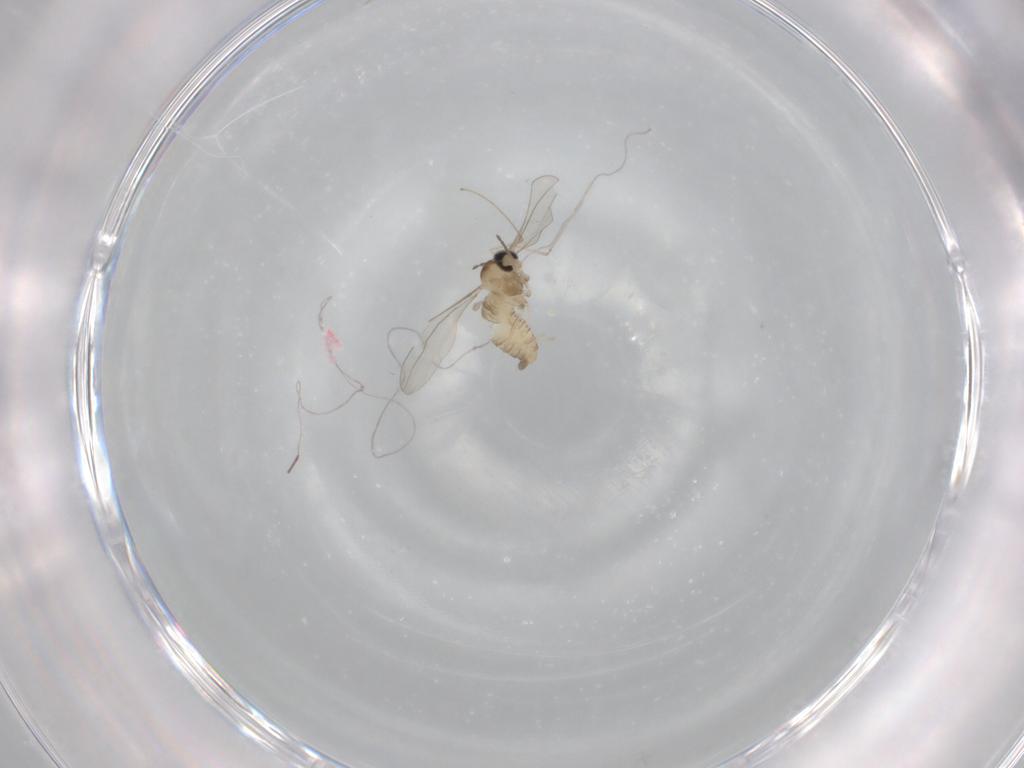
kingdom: Animalia
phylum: Arthropoda
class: Insecta
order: Diptera
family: Cecidomyiidae
